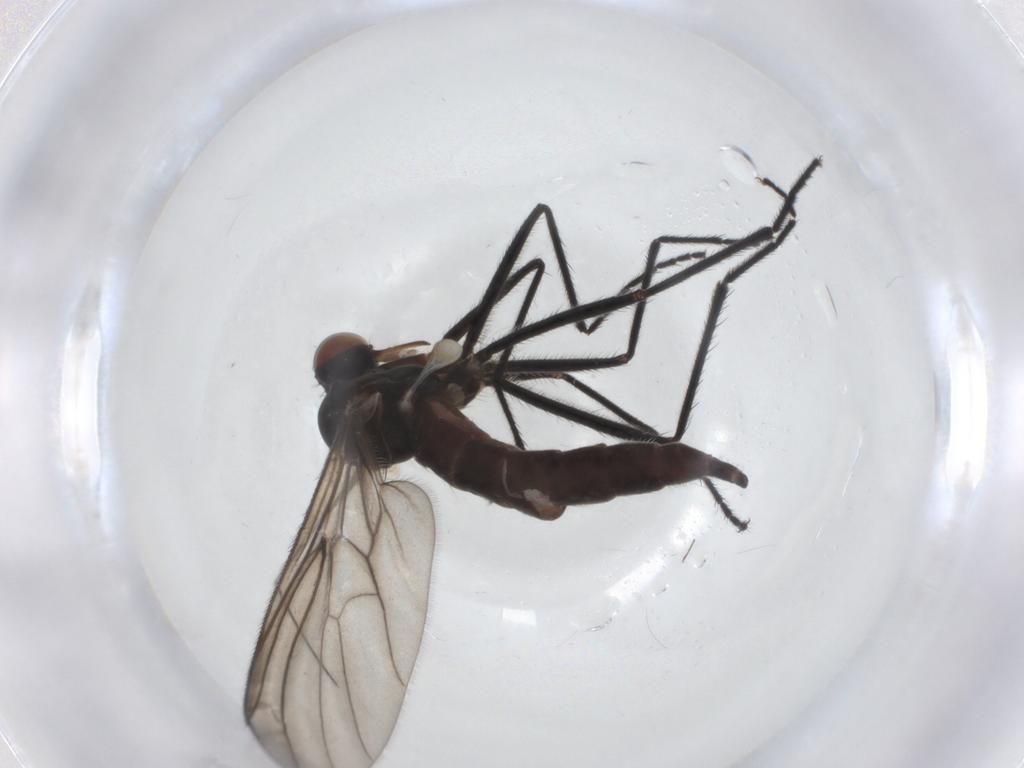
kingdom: Animalia
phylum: Arthropoda
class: Insecta
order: Diptera
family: Empididae
